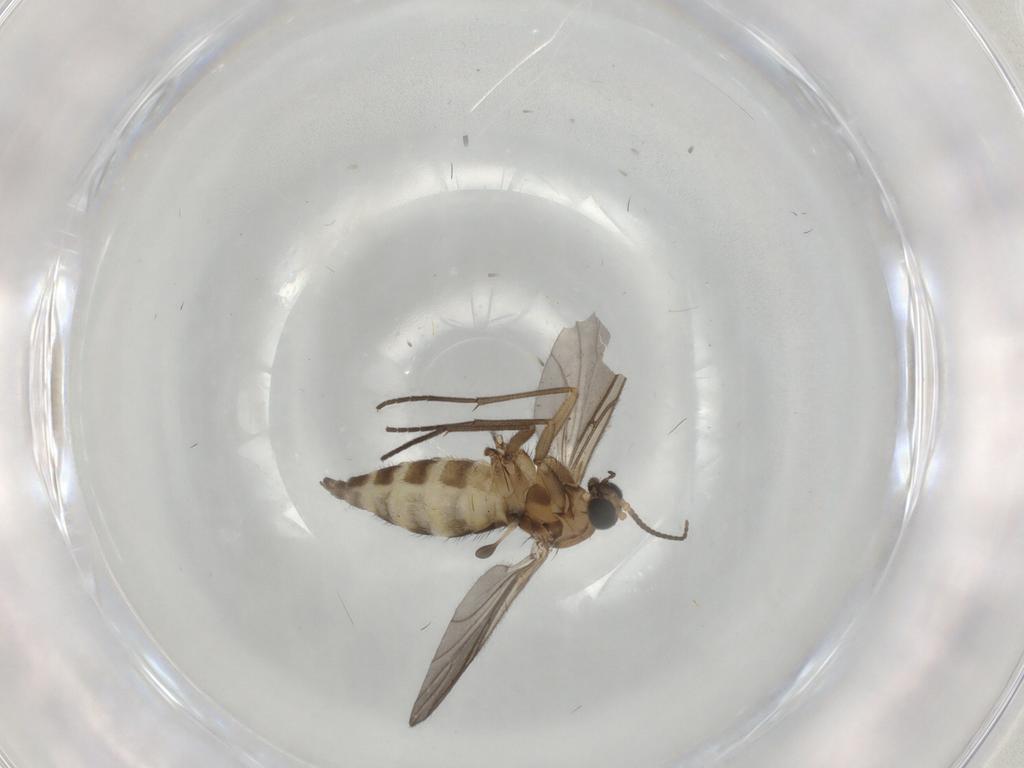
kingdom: Animalia
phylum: Arthropoda
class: Insecta
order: Diptera
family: Sciaridae
